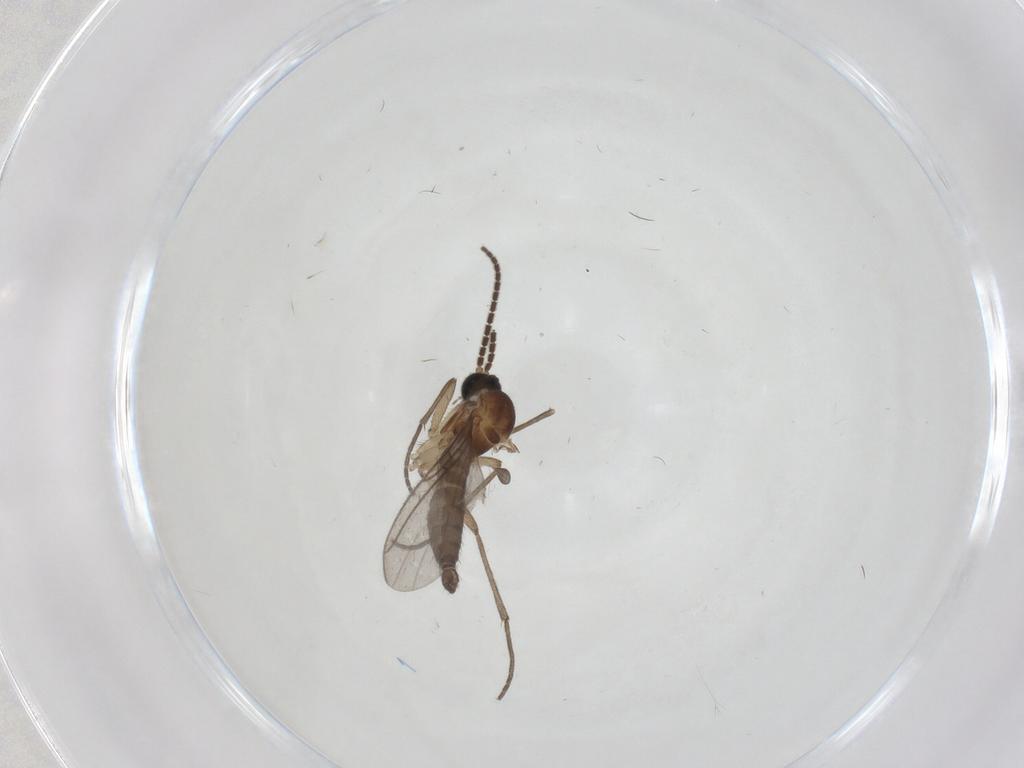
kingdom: Animalia
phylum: Arthropoda
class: Insecta
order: Diptera
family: Sciaridae
